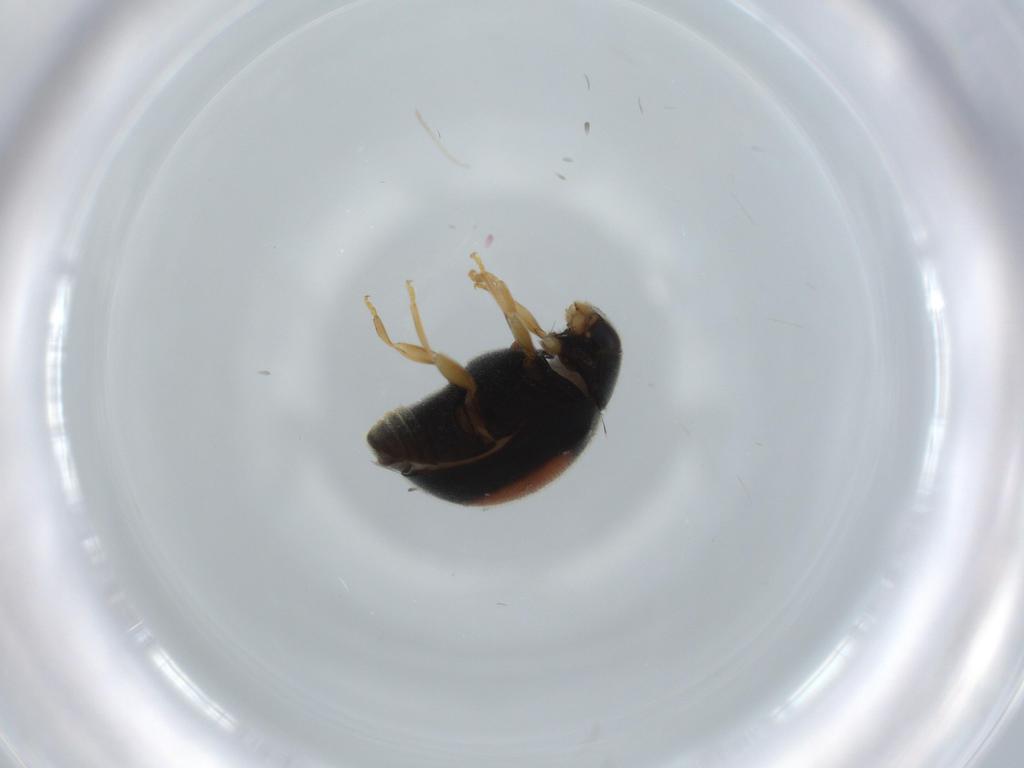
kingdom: Animalia
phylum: Arthropoda
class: Insecta
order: Coleoptera
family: Coccinellidae
